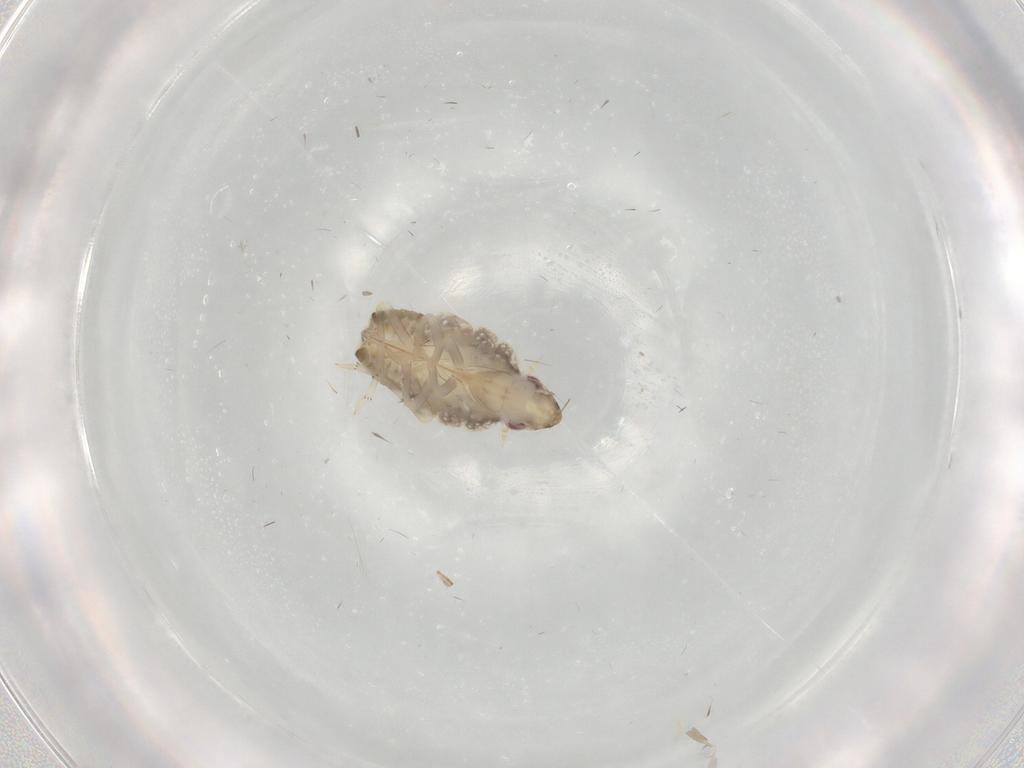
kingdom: Animalia
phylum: Arthropoda
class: Insecta
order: Hemiptera
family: Fulgoroidea_incertae_sedis
